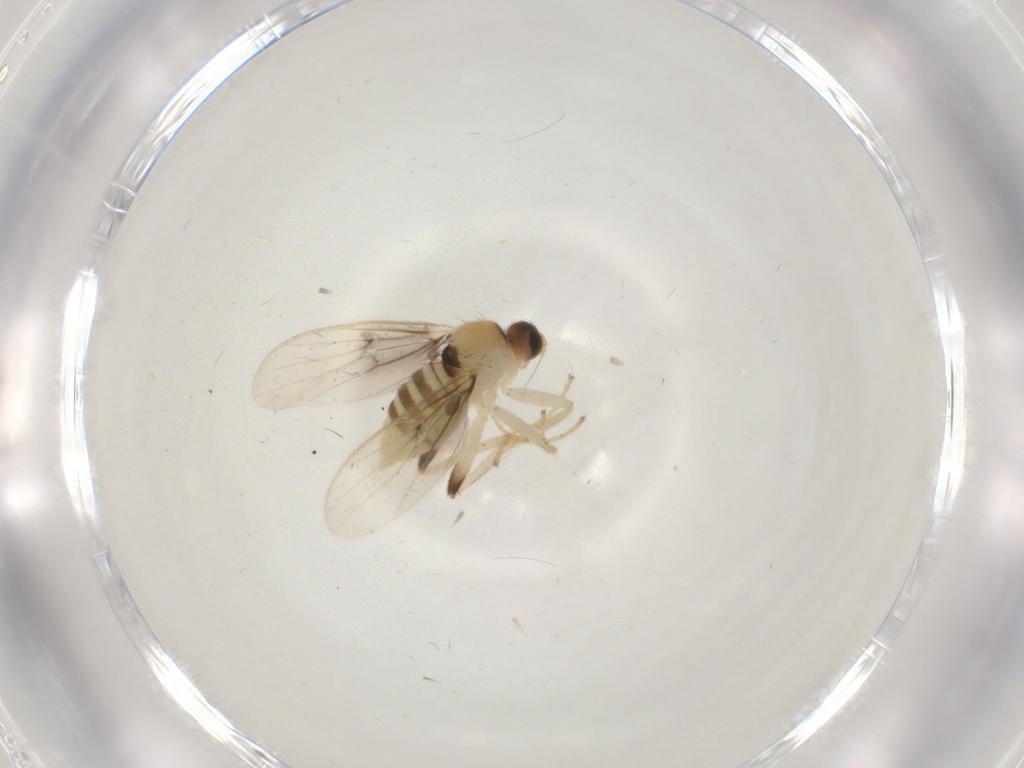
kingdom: Animalia
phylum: Arthropoda
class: Insecta
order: Diptera
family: Hybotidae
